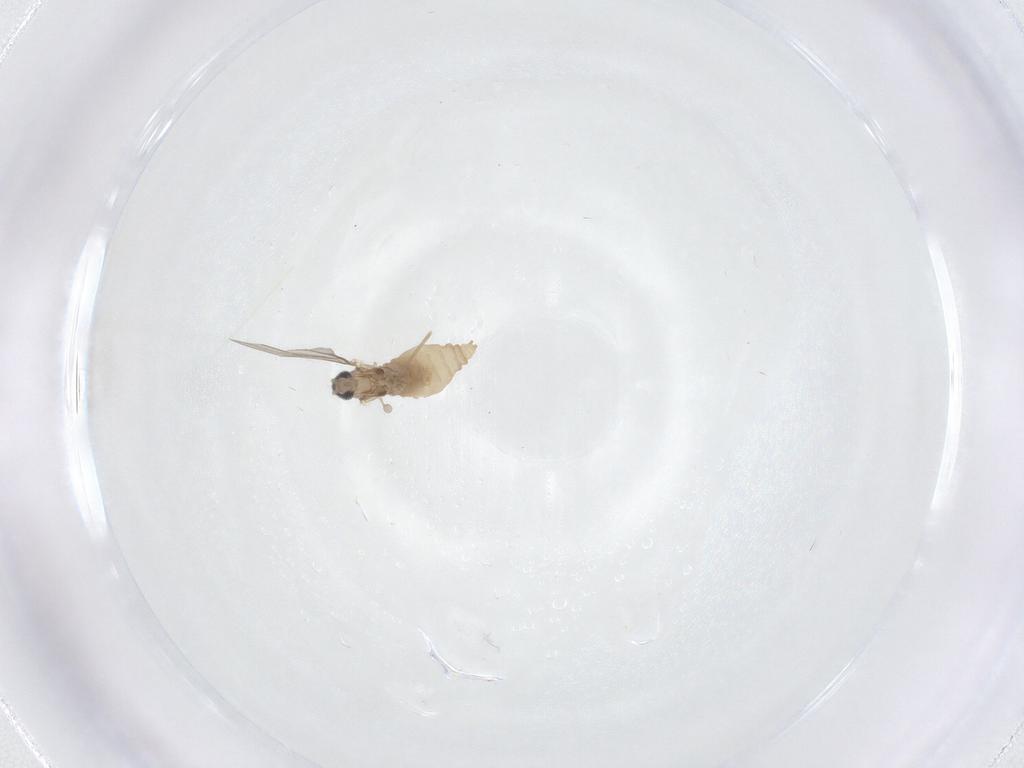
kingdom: Animalia
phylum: Arthropoda
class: Insecta
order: Diptera
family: Cecidomyiidae
